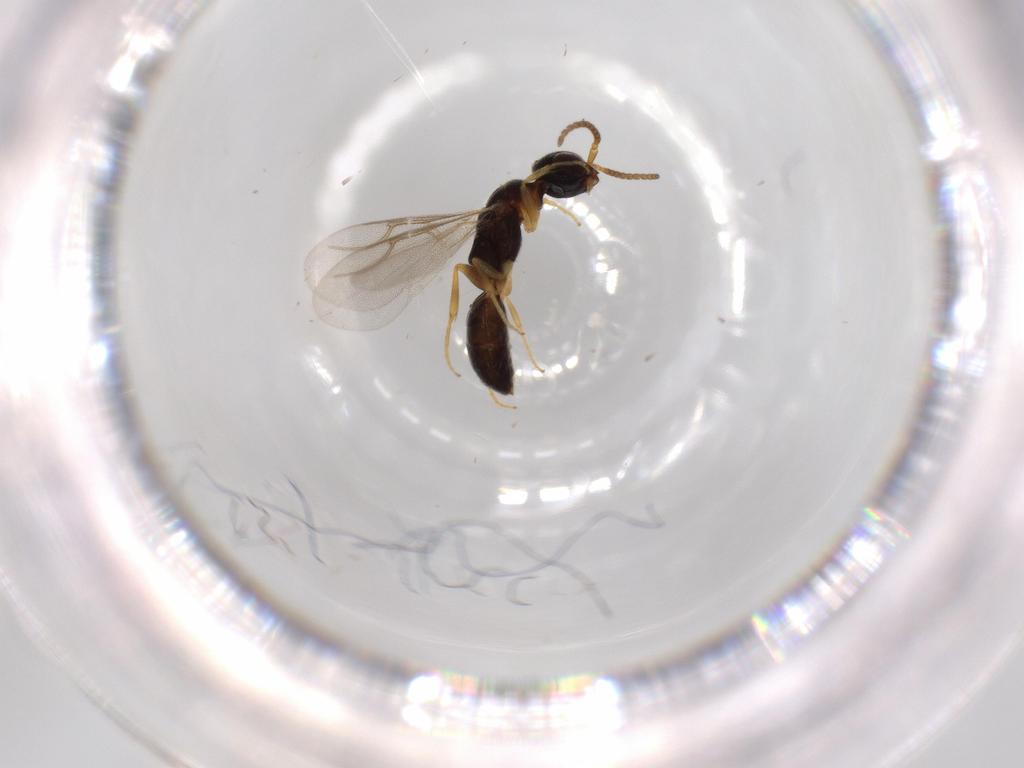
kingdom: Animalia
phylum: Arthropoda
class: Insecta
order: Hymenoptera
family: Bethylidae
